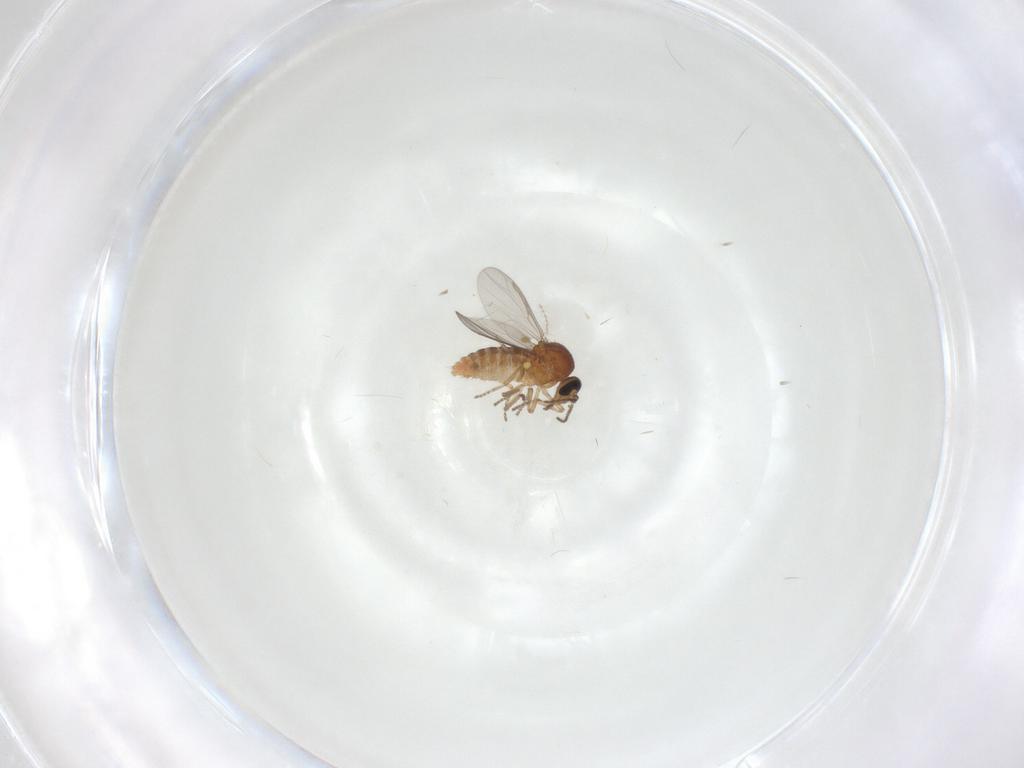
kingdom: Animalia
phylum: Arthropoda
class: Insecta
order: Diptera
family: Ceratopogonidae
